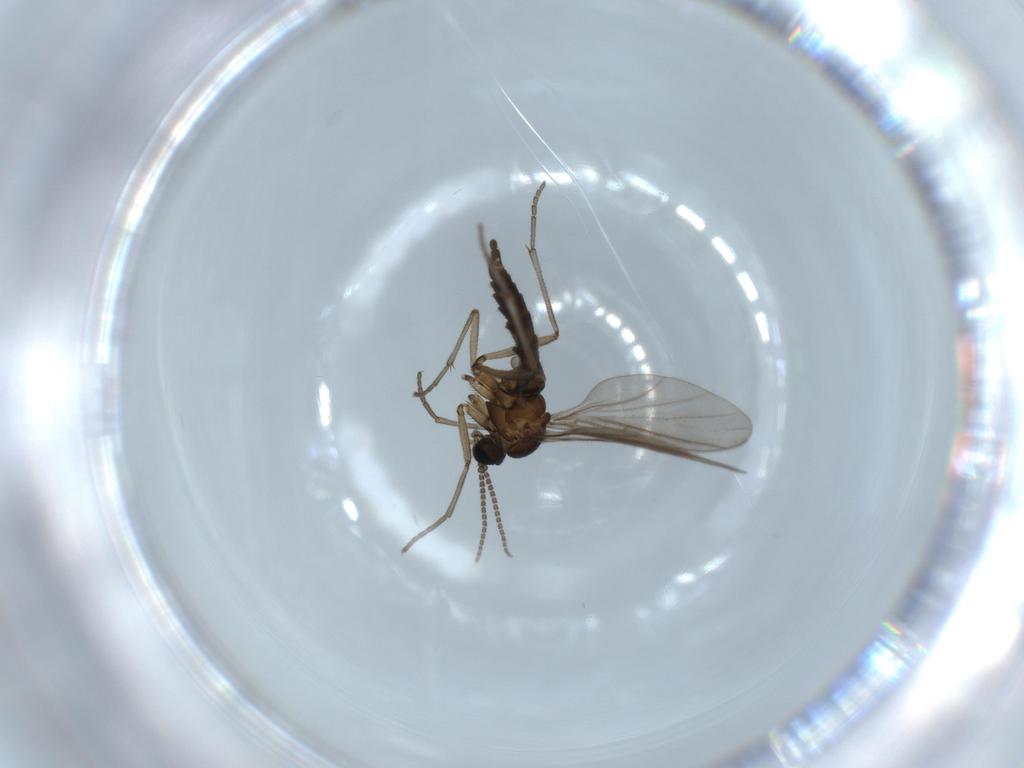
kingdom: Animalia
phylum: Arthropoda
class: Insecta
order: Diptera
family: Sciaridae
